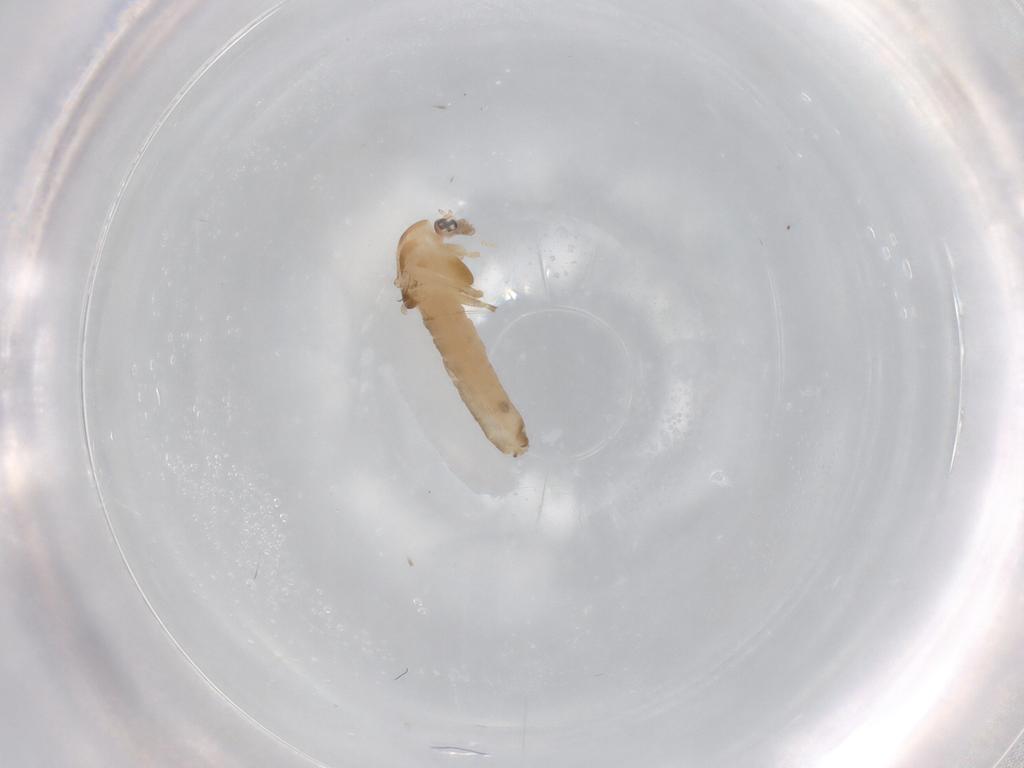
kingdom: Animalia
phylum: Arthropoda
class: Insecta
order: Diptera
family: Chironomidae
